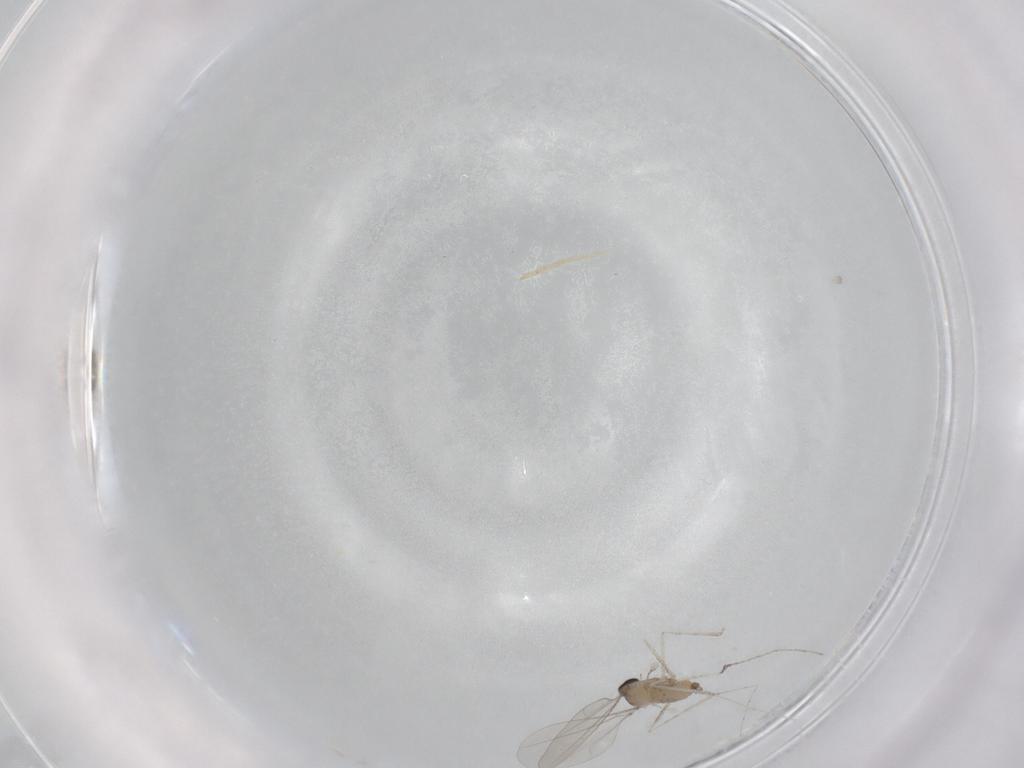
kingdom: Animalia
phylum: Arthropoda
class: Insecta
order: Diptera
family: Cecidomyiidae
